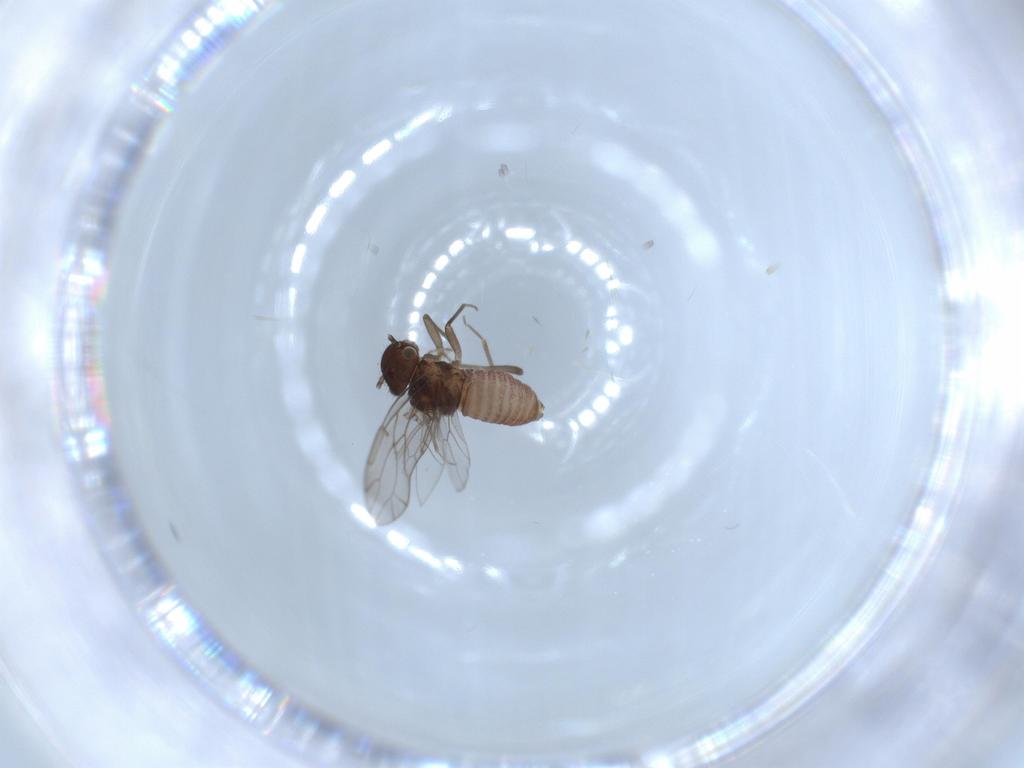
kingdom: Animalia
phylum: Arthropoda
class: Insecta
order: Psocodea
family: Ectopsocidae
